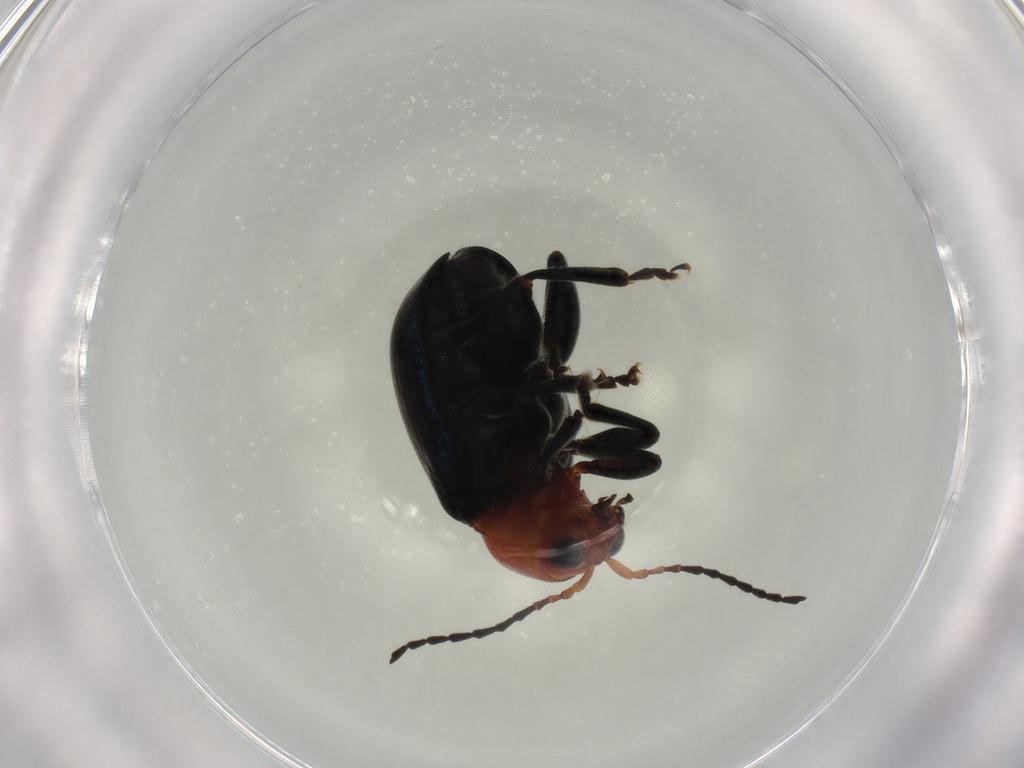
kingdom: Animalia
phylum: Arthropoda
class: Insecta
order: Coleoptera
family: Chrysomelidae
